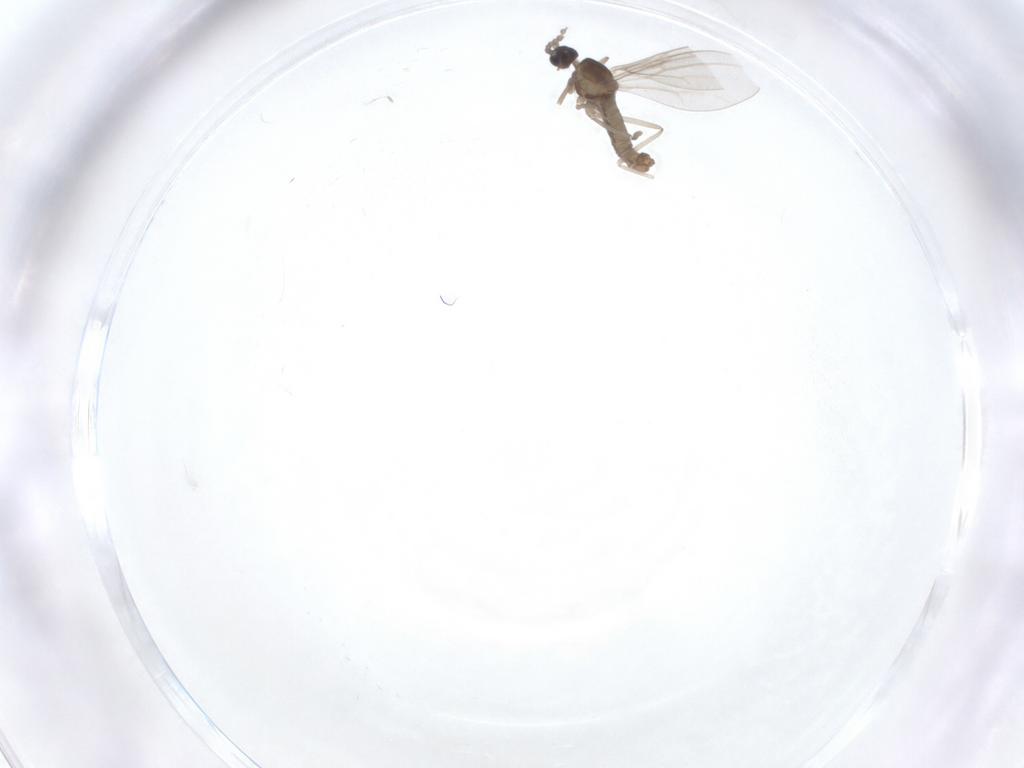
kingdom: Animalia
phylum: Arthropoda
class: Insecta
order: Diptera
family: Cecidomyiidae
